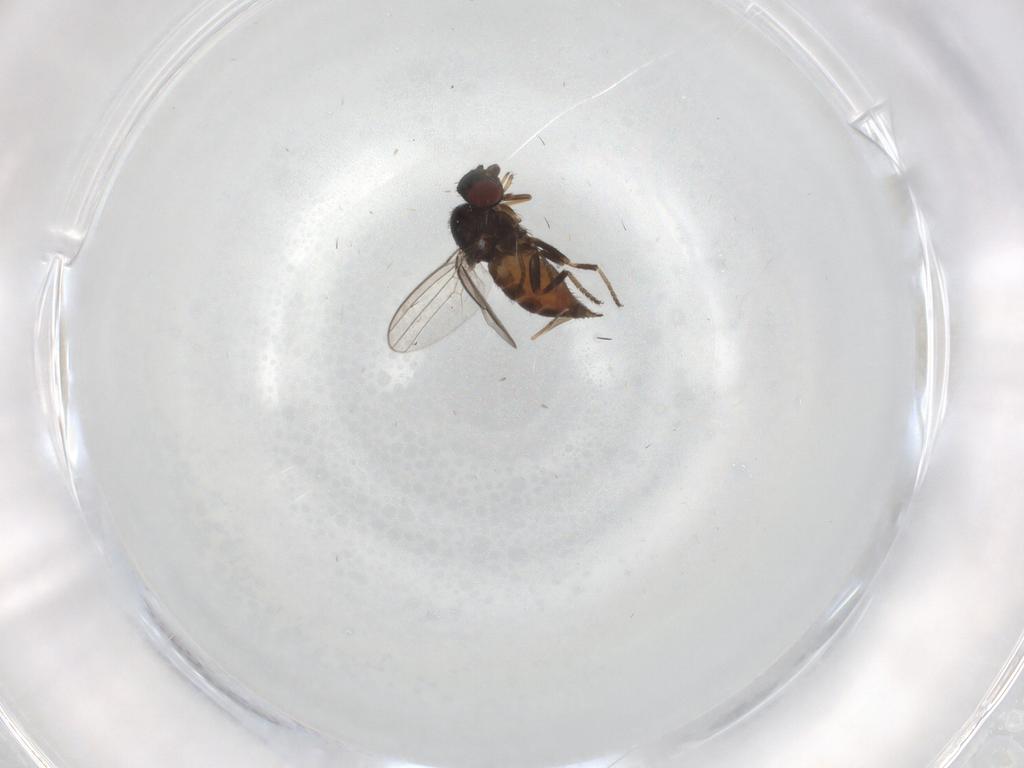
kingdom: Animalia
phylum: Arthropoda
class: Insecta
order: Diptera
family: Milichiidae
